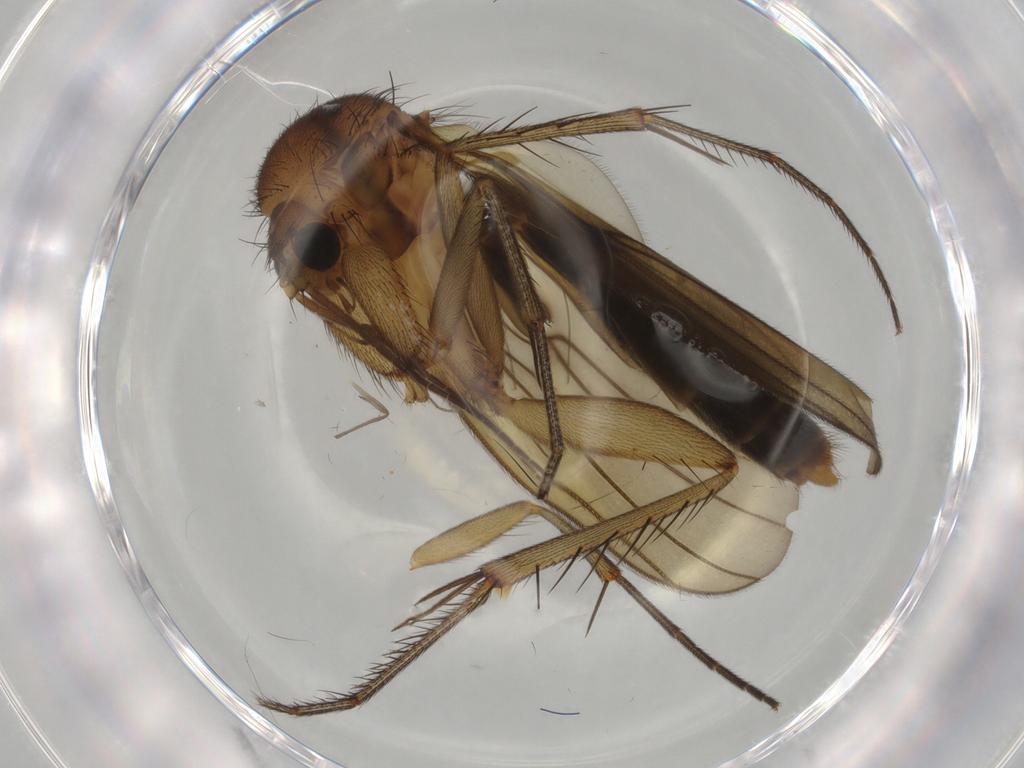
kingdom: Animalia
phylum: Arthropoda
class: Insecta
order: Diptera
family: Mycetophilidae
